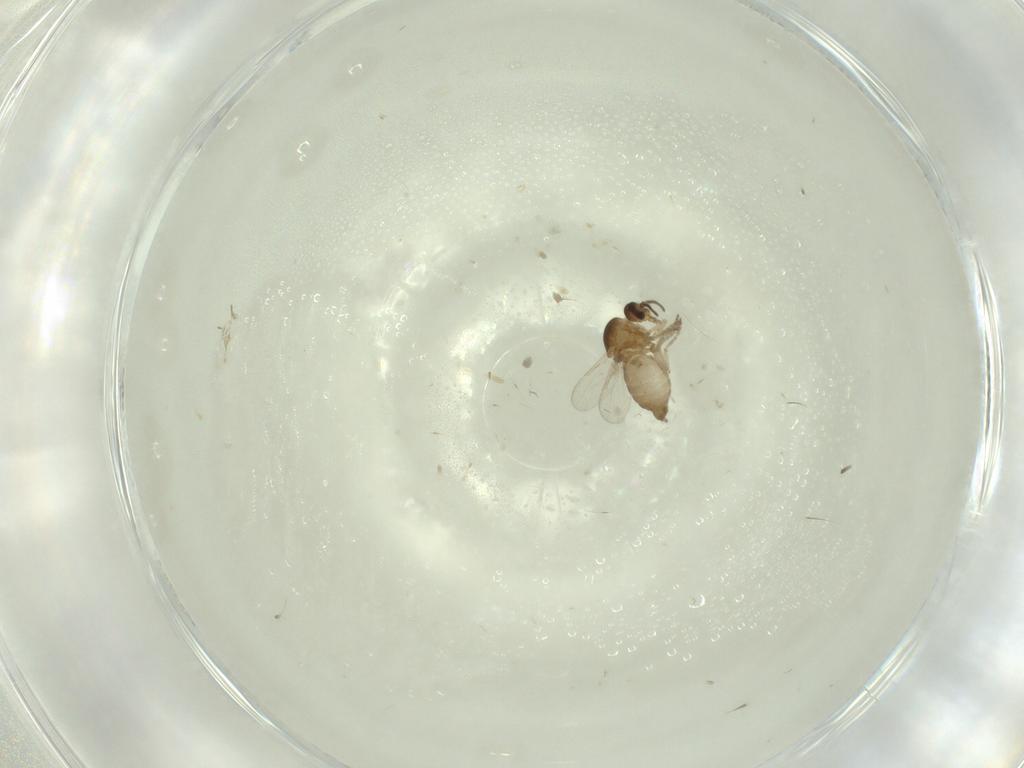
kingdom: Animalia
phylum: Arthropoda
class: Insecta
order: Diptera
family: Ceratopogonidae
